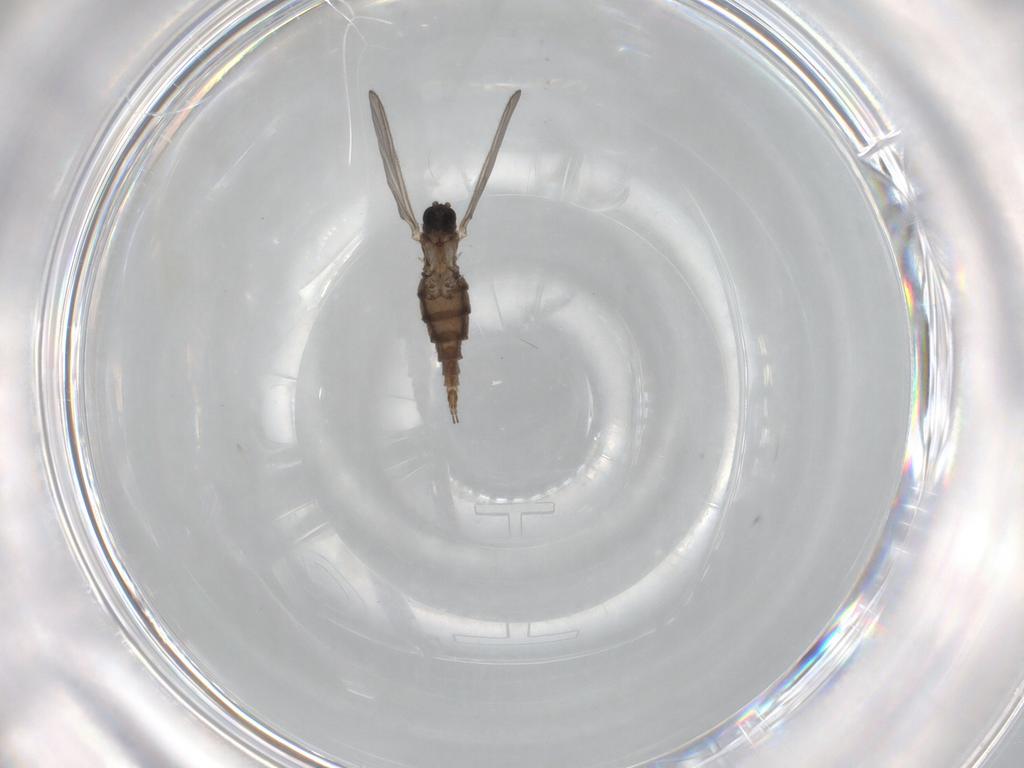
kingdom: Animalia
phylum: Arthropoda
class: Insecta
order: Diptera
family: Sciaridae
